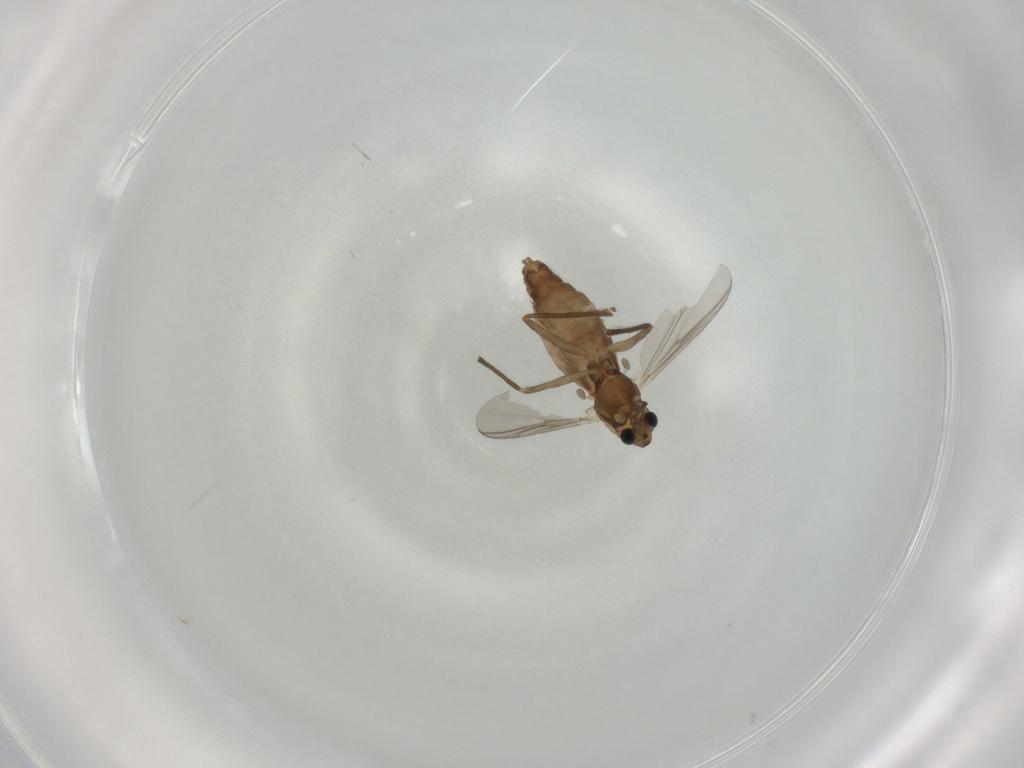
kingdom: Animalia
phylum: Arthropoda
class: Insecta
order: Diptera
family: Chironomidae
